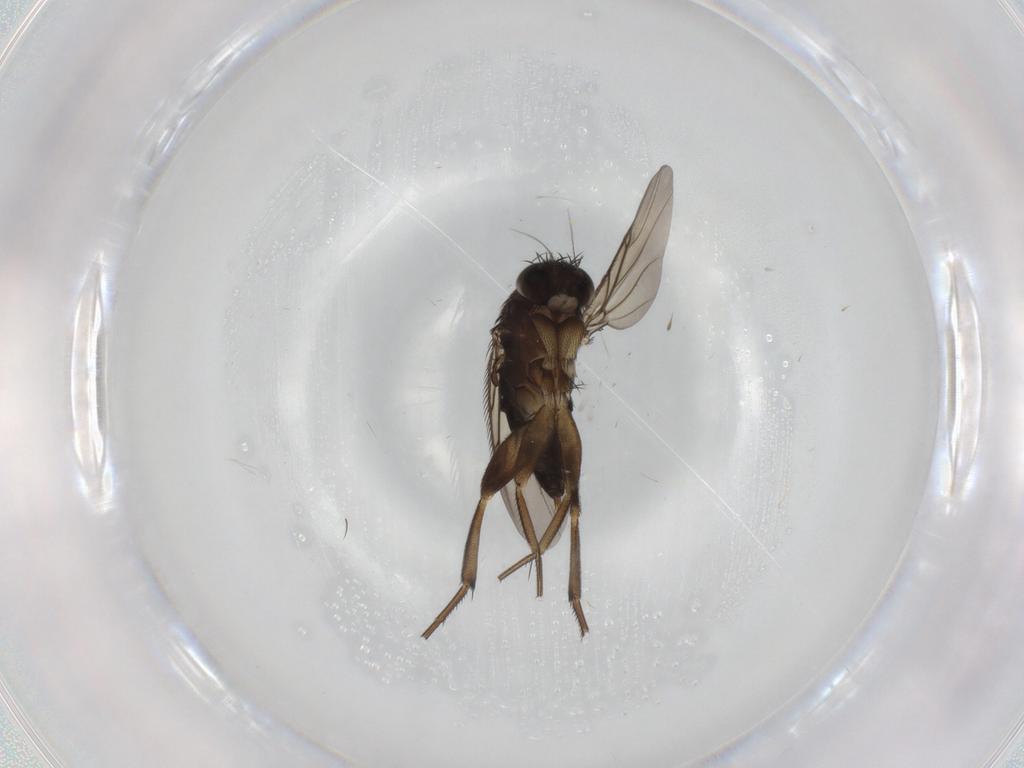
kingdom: Animalia
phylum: Arthropoda
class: Insecta
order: Diptera
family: Phoridae
